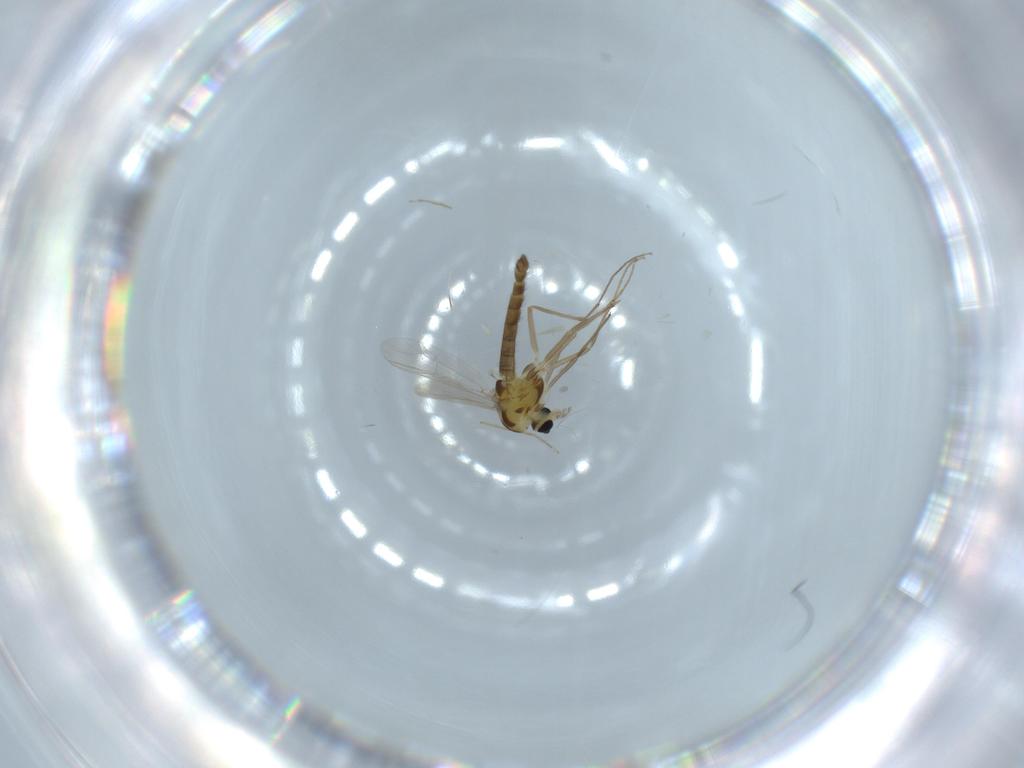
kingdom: Animalia
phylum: Arthropoda
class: Insecta
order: Diptera
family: Chironomidae
